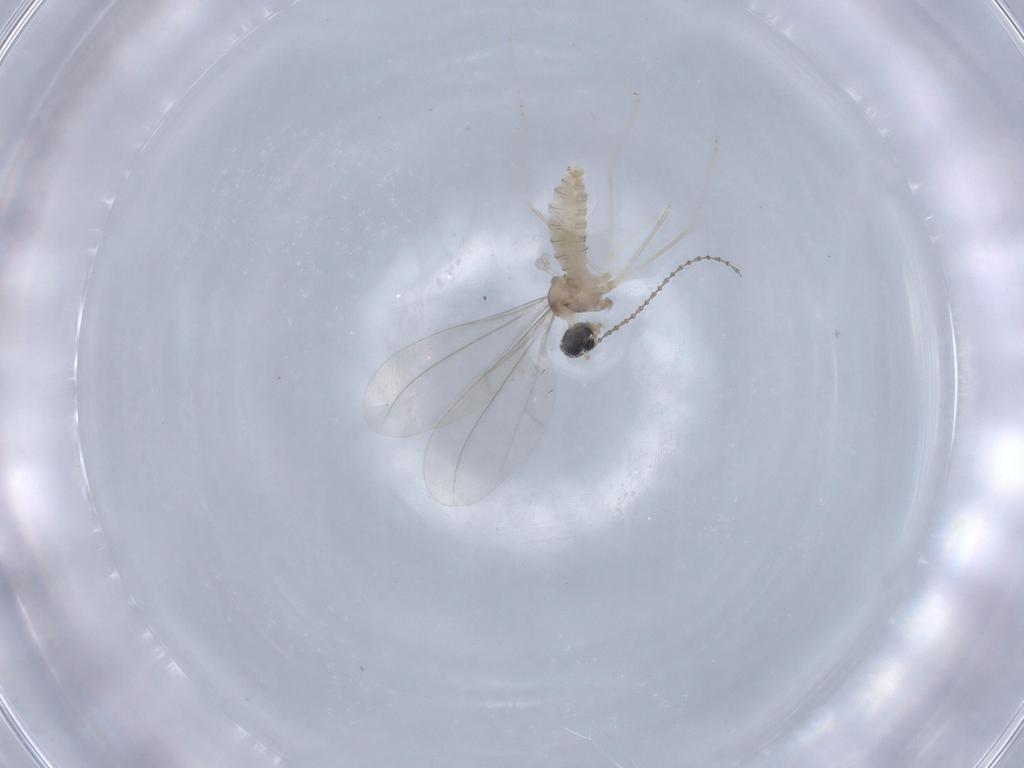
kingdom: Animalia
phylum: Arthropoda
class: Insecta
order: Diptera
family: Cecidomyiidae
